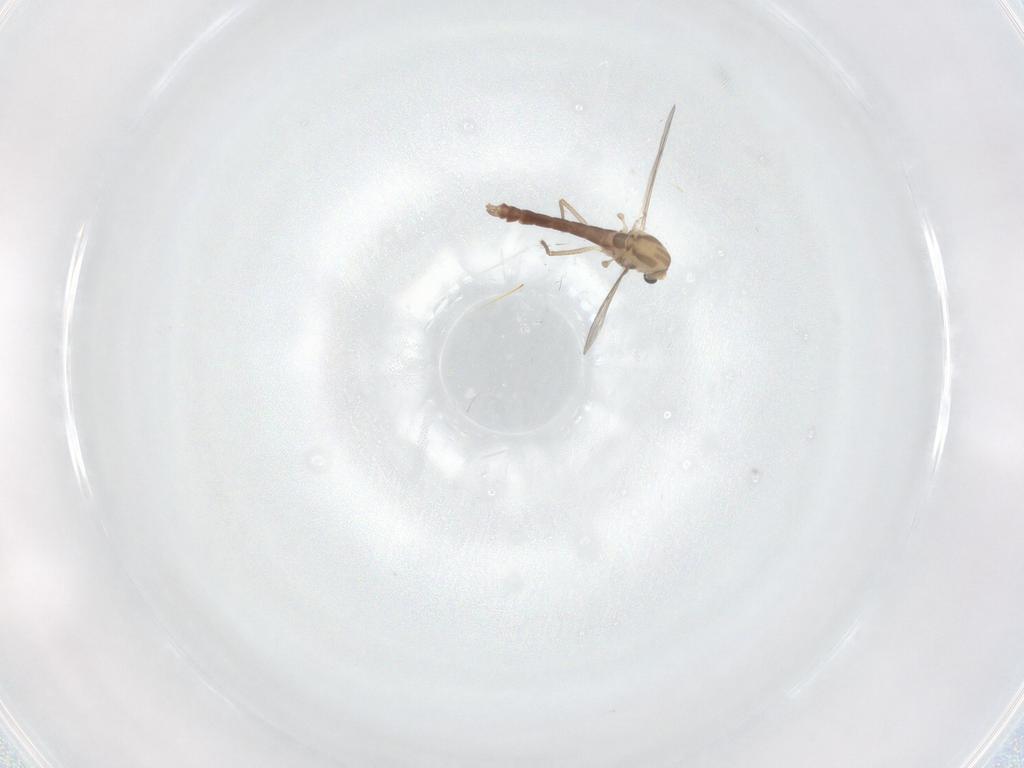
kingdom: Animalia
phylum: Arthropoda
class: Insecta
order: Diptera
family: Chironomidae
